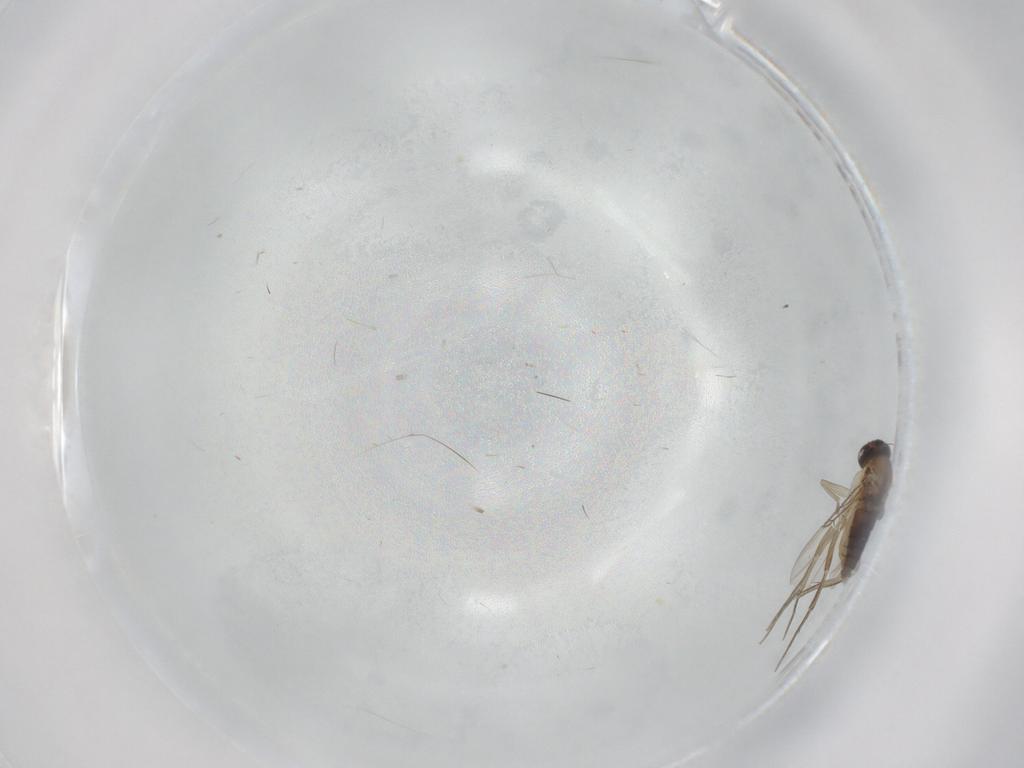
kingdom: Animalia
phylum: Arthropoda
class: Insecta
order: Diptera
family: Phoridae
